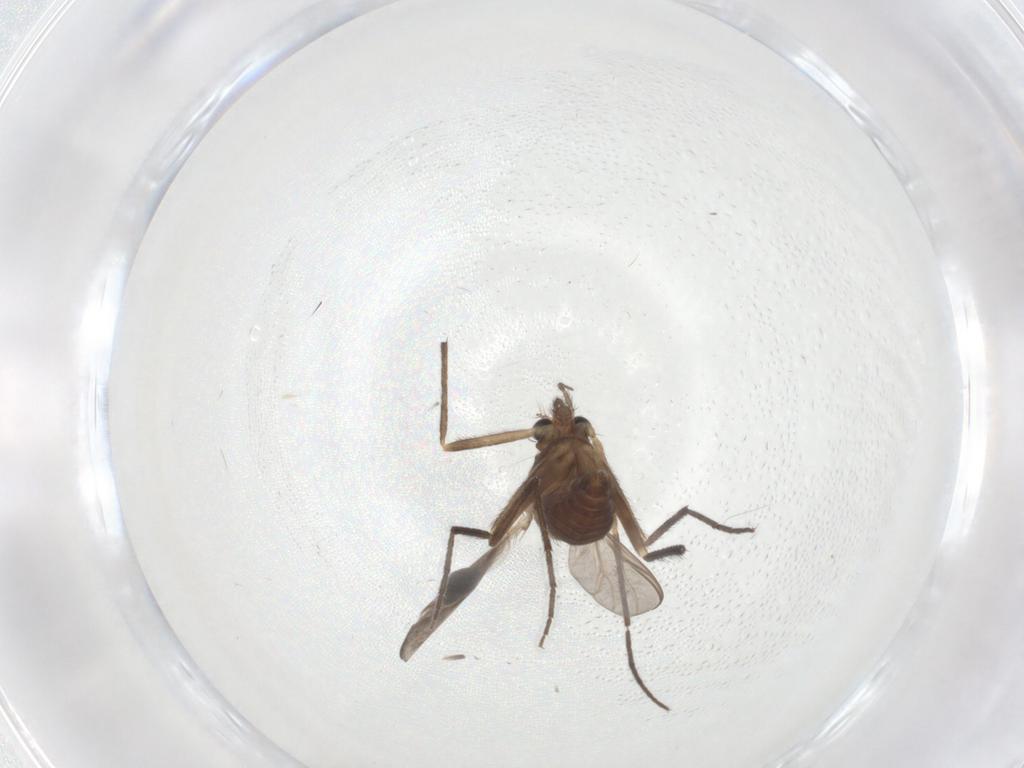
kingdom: Animalia
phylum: Arthropoda
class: Insecta
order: Diptera
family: Chironomidae
